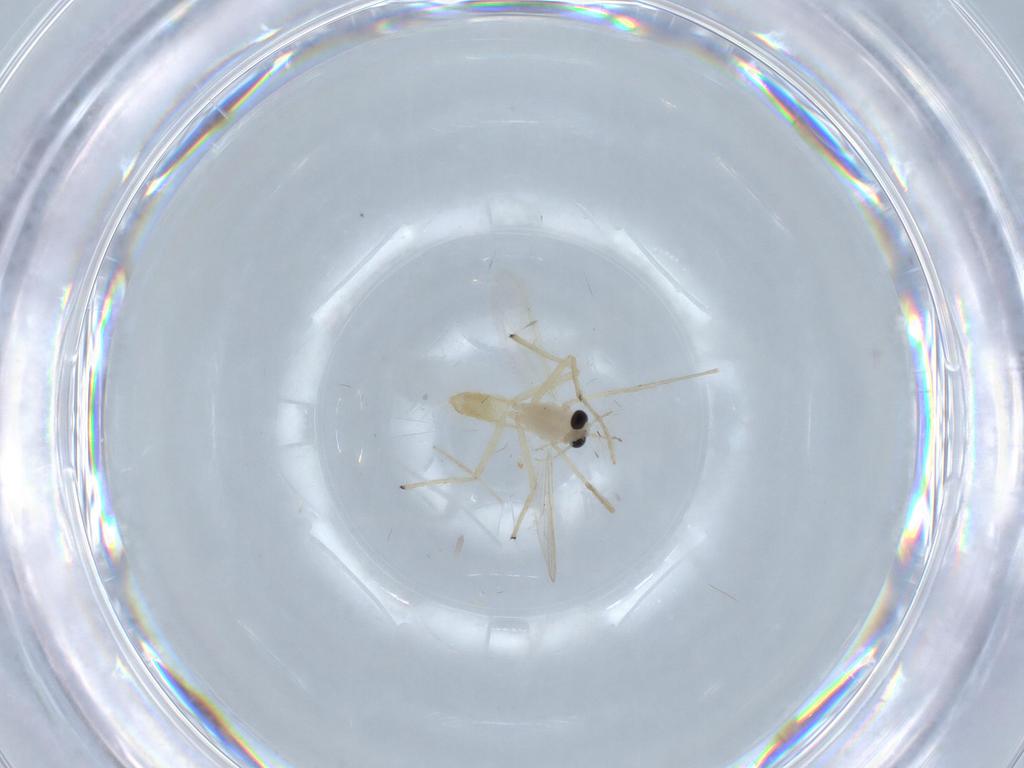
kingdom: Animalia
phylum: Arthropoda
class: Insecta
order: Diptera
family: Chironomidae
